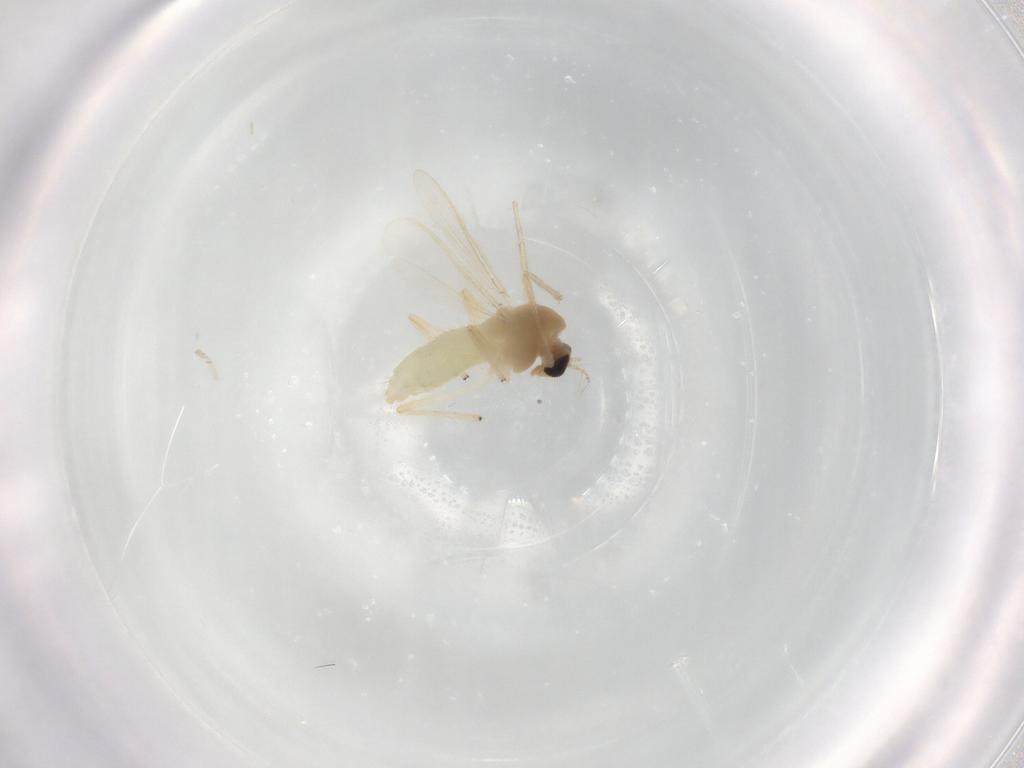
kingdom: Animalia
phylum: Arthropoda
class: Insecta
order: Diptera
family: Chironomidae
